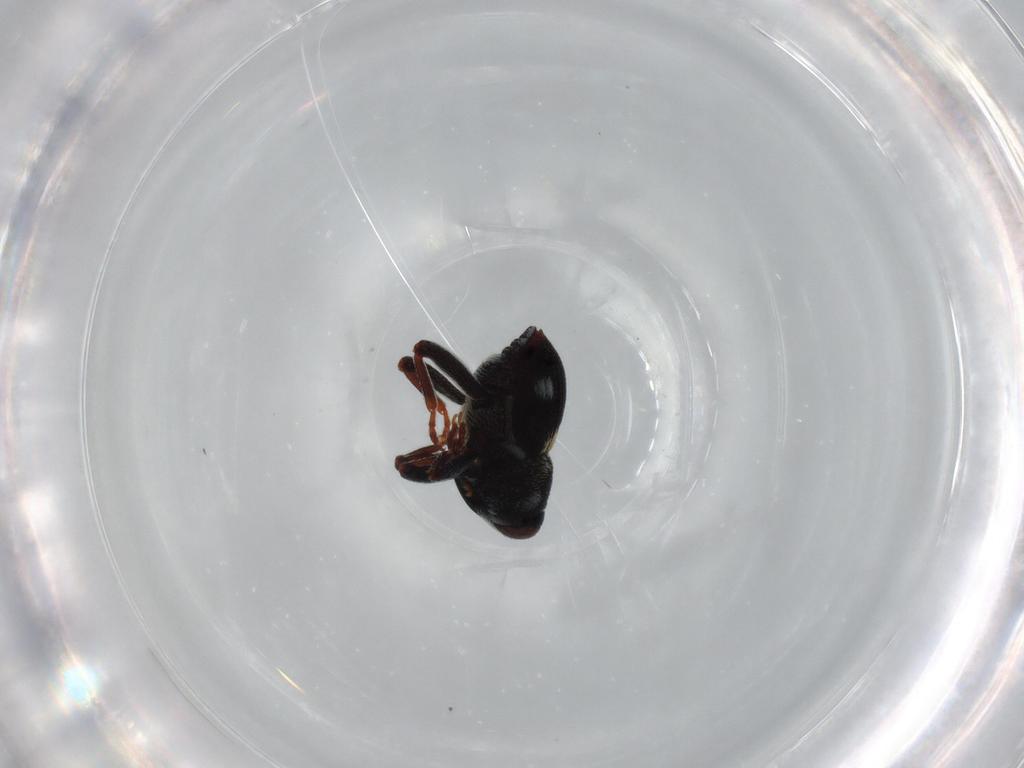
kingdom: Animalia
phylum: Arthropoda
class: Insecta
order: Coleoptera
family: Curculionidae
